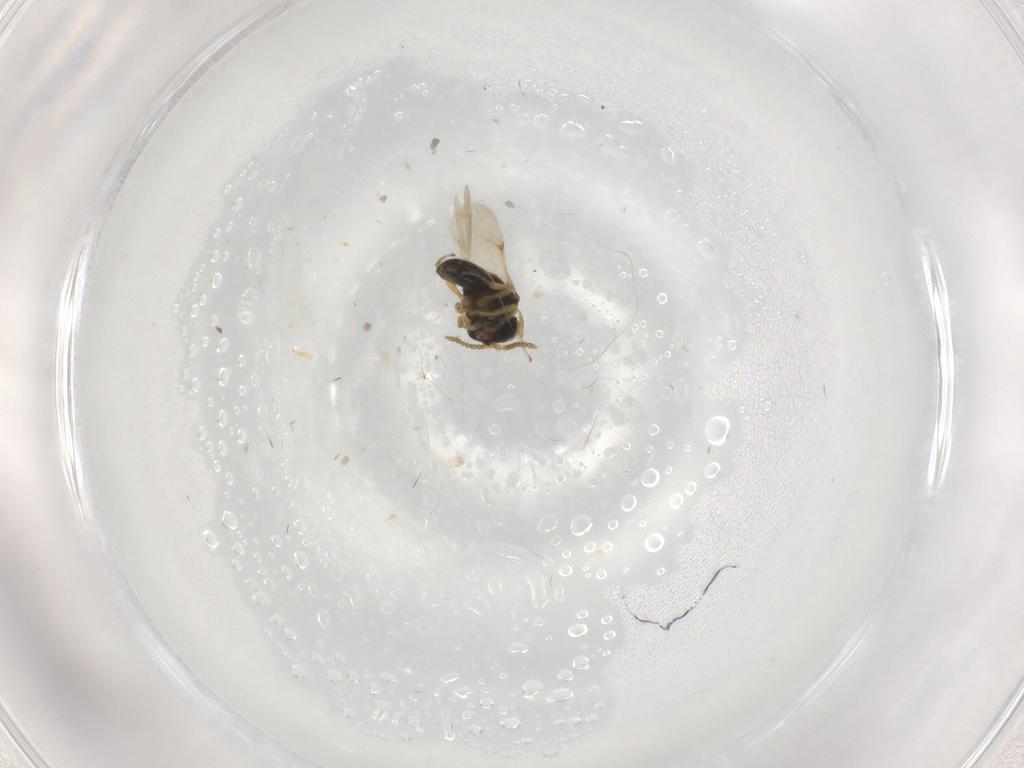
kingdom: Animalia
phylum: Arthropoda
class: Insecta
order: Hymenoptera
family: Scelionidae
